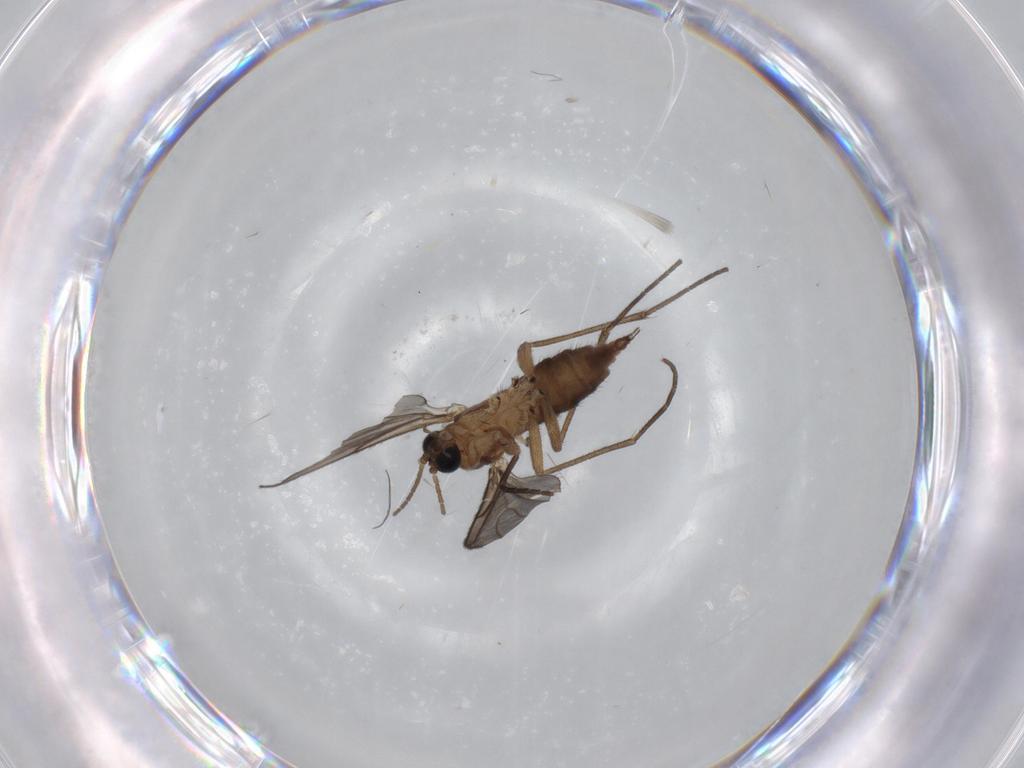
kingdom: Animalia
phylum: Arthropoda
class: Insecta
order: Diptera
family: Sciaridae
